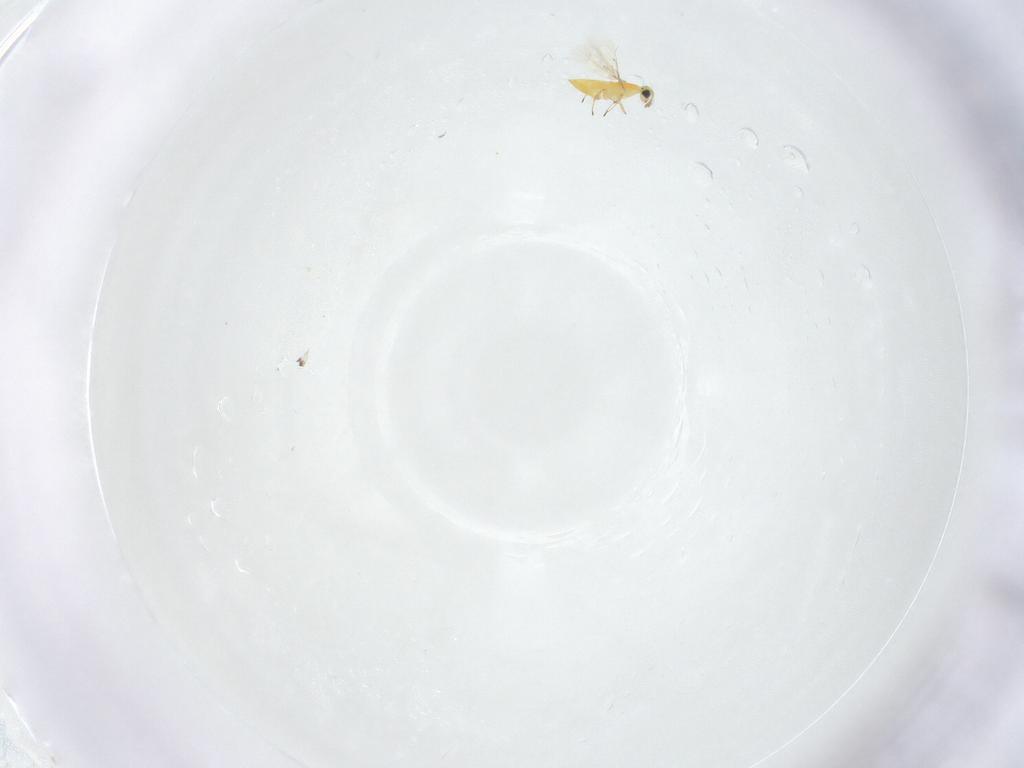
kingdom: Animalia
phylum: Arthropoda
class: Insecta
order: Hymenoptera
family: Trichogrammatidae
